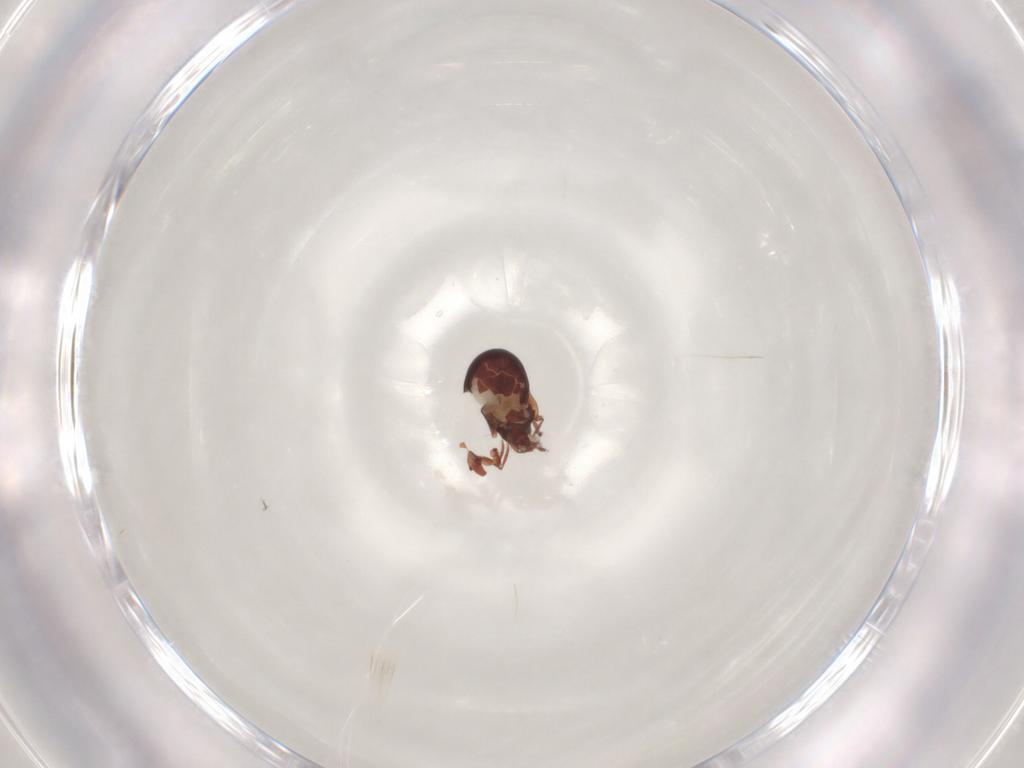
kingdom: Animalia
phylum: Arthropoda
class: Arachnida
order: Sarcoptiformes
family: Humerobatidae
